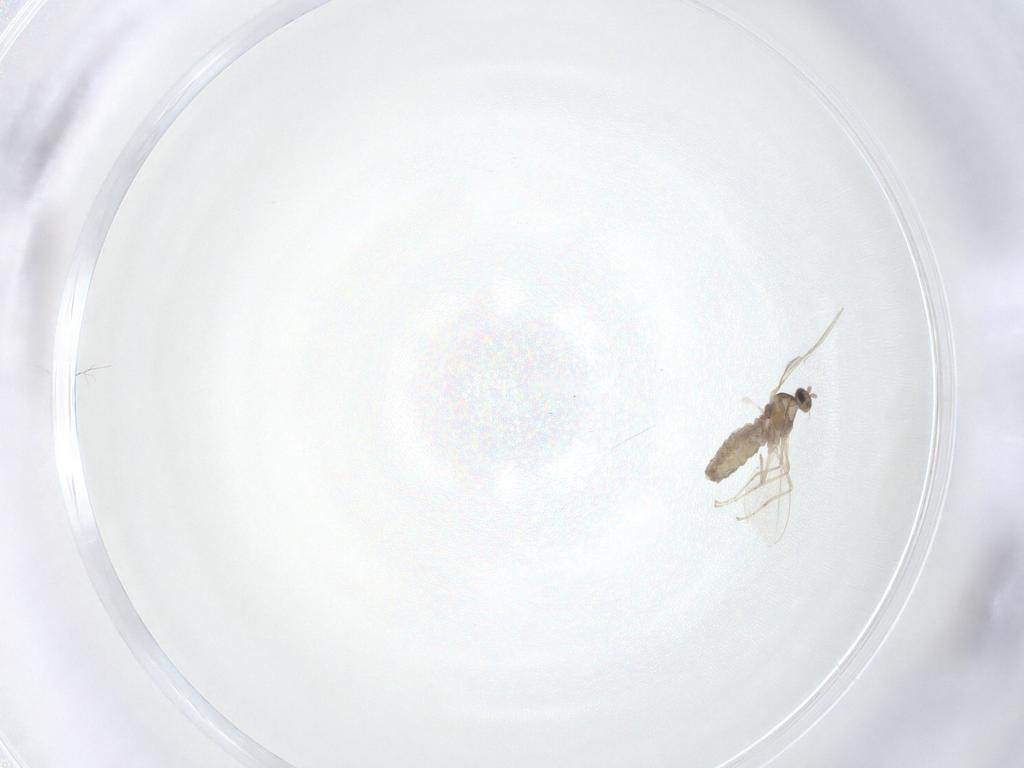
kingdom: Animalia
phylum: Arthropoda
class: Insecta
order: Diptera
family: Cecidomyiidae
